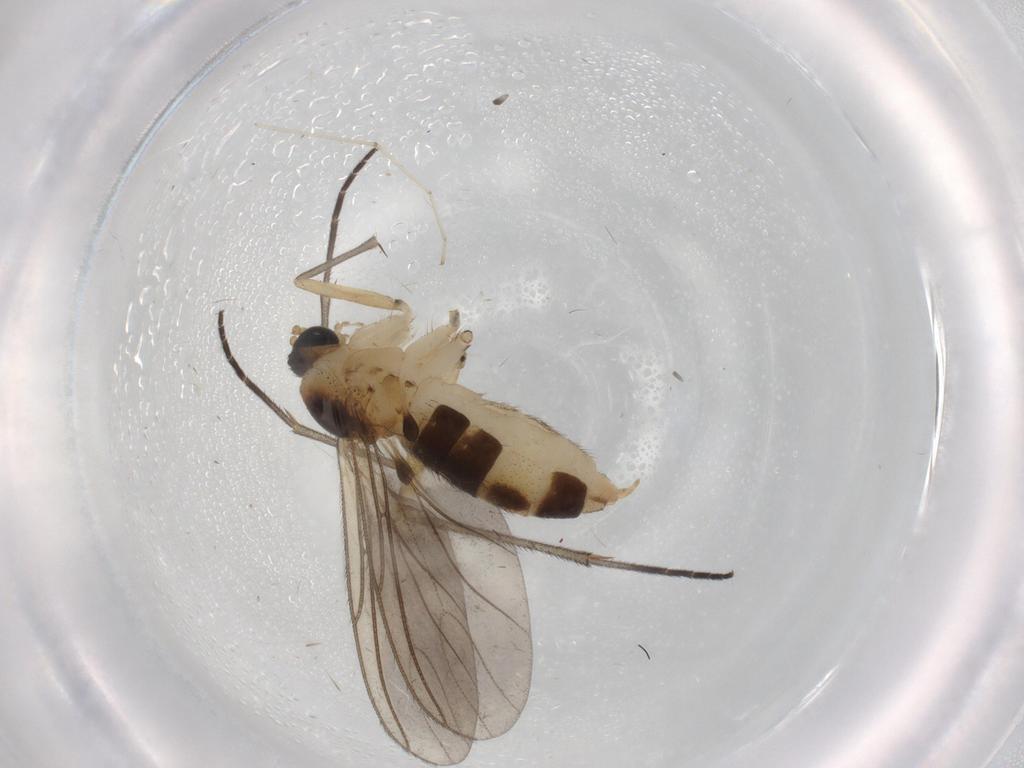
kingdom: Animalia
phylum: Arthropoda
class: Insecta
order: Diptera
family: Sciaridae
